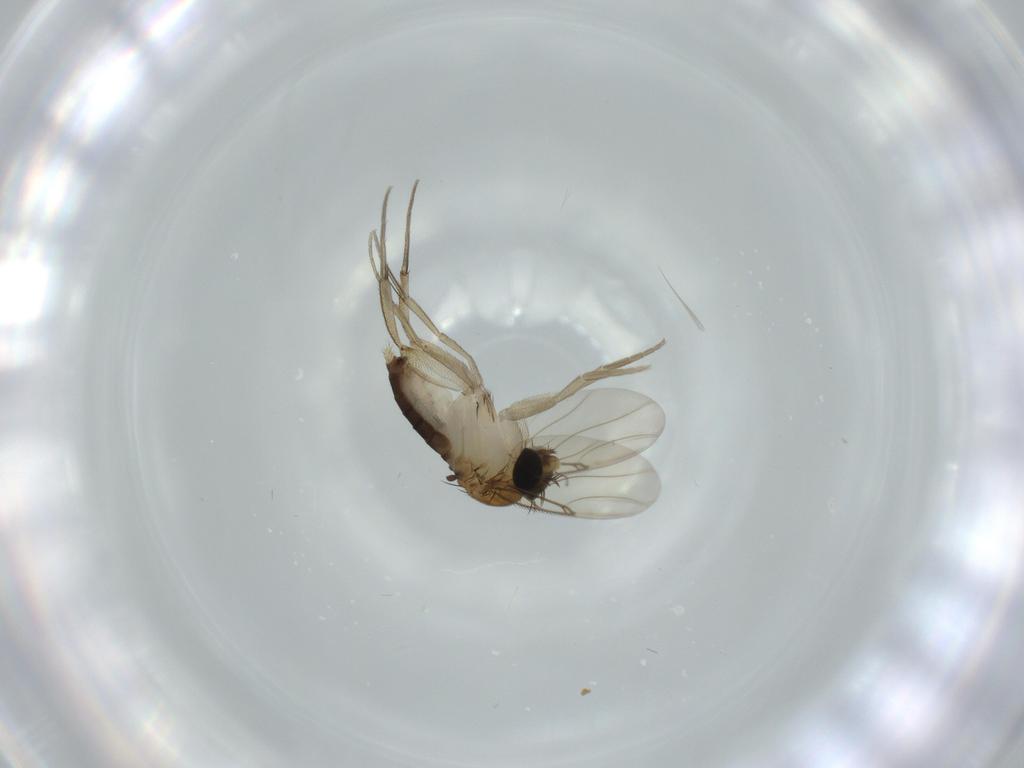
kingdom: Animalia
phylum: Arthropoda
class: Insecta
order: Diptera
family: Phoridae
